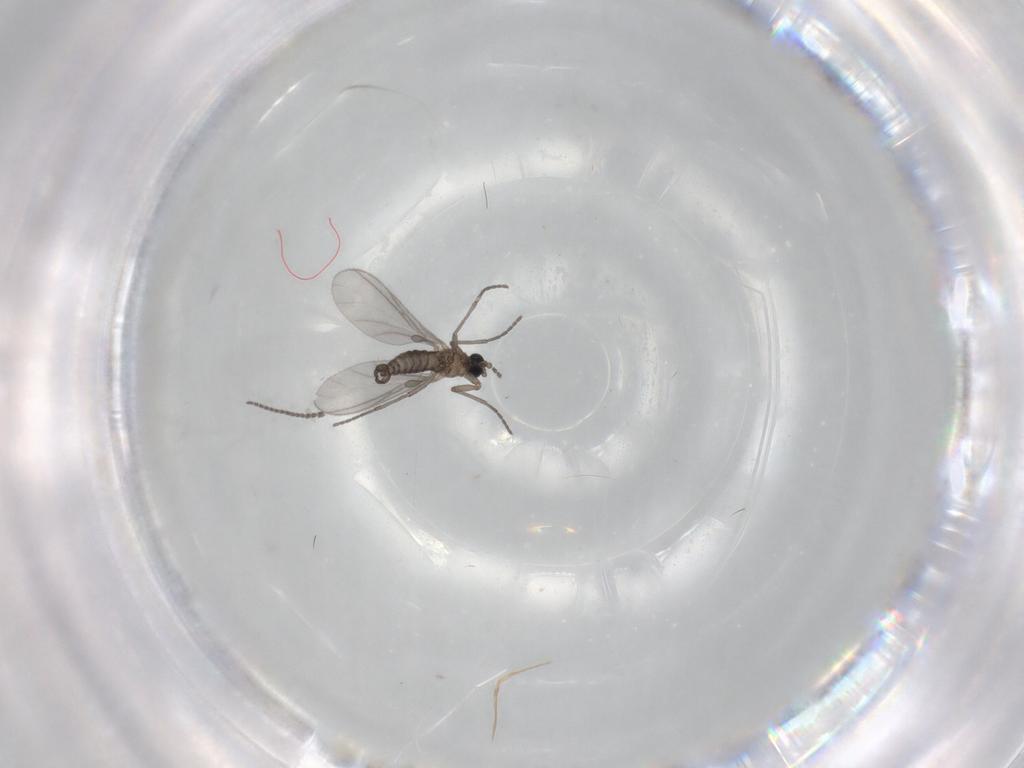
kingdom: Animalia
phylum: Arthropoda
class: Insecta
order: Diptera
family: Sciaridae
